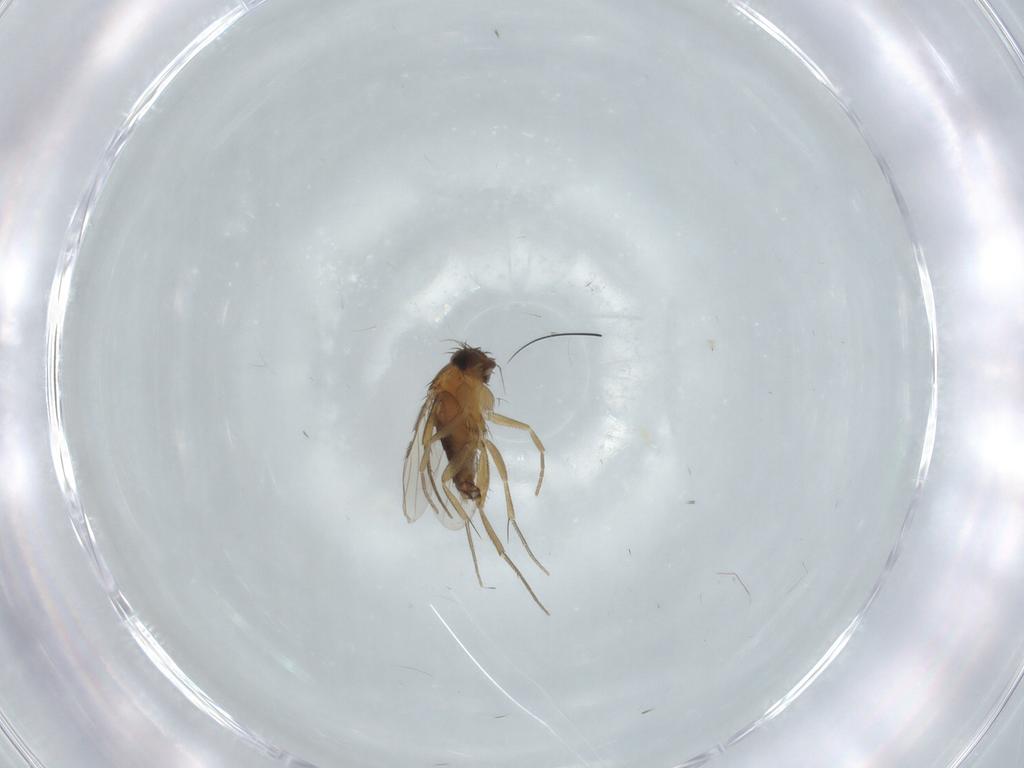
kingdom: Animalia
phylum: Arthropoda
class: Insecta
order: Diptera
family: Phoridae
